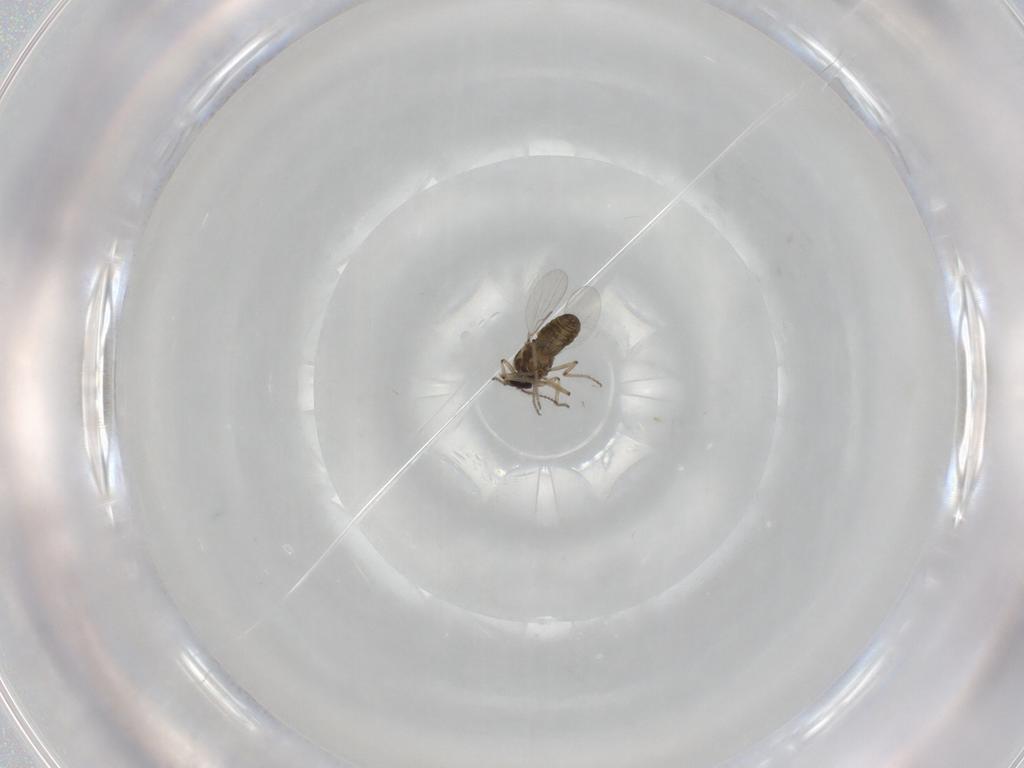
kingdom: Animalia
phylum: Arthropoda
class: Insecta
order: Diptera
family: Ceratopogonidae
